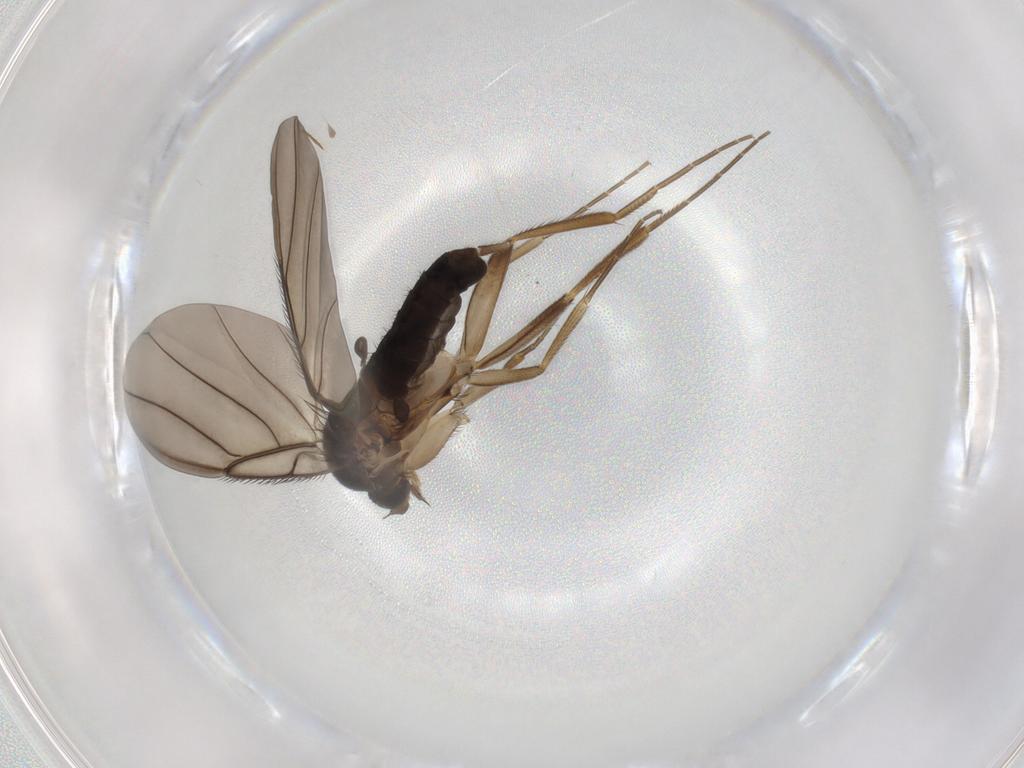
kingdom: Animalia
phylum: Arthropoda
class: Insecta
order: Diptera
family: Phoridae
